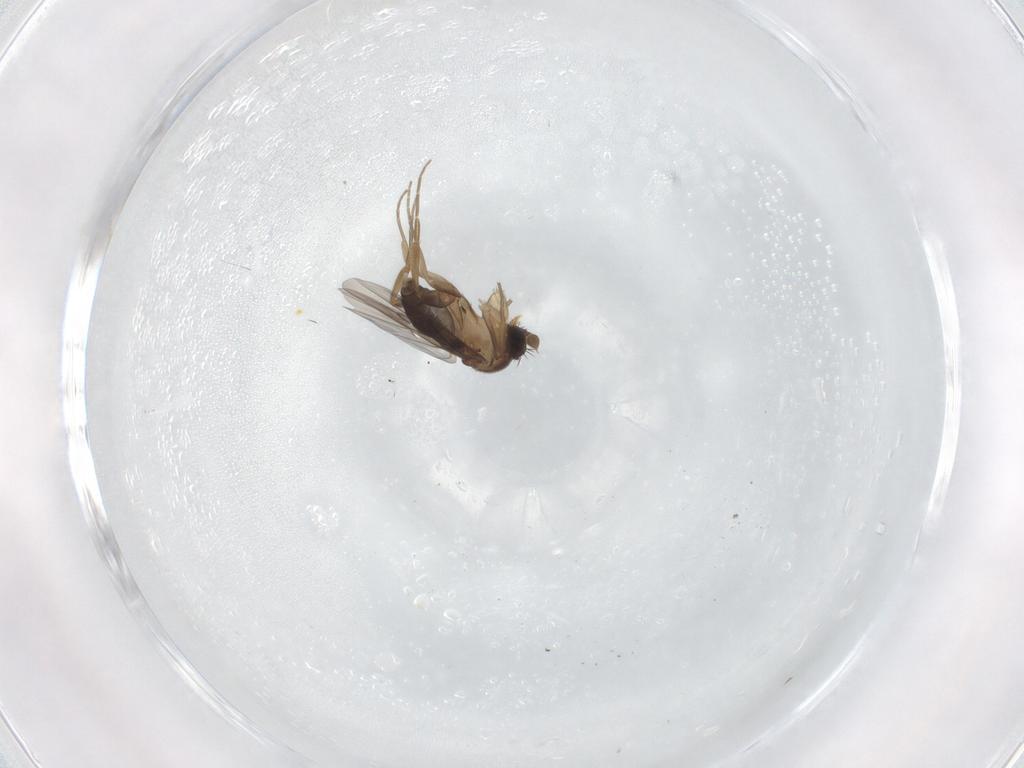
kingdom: Animalia
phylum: Arthropoda
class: Insecta
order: Diptera
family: Phoridae
